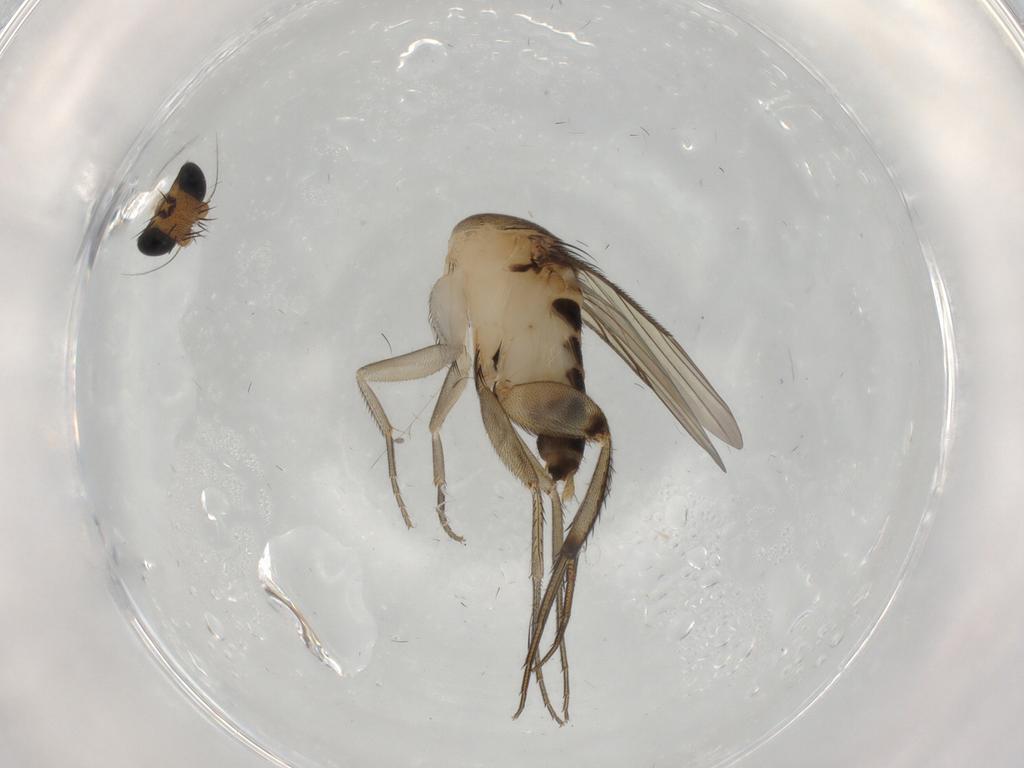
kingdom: Animalia
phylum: Arthropoda
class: Insecta
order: Diptera
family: Phoridae
